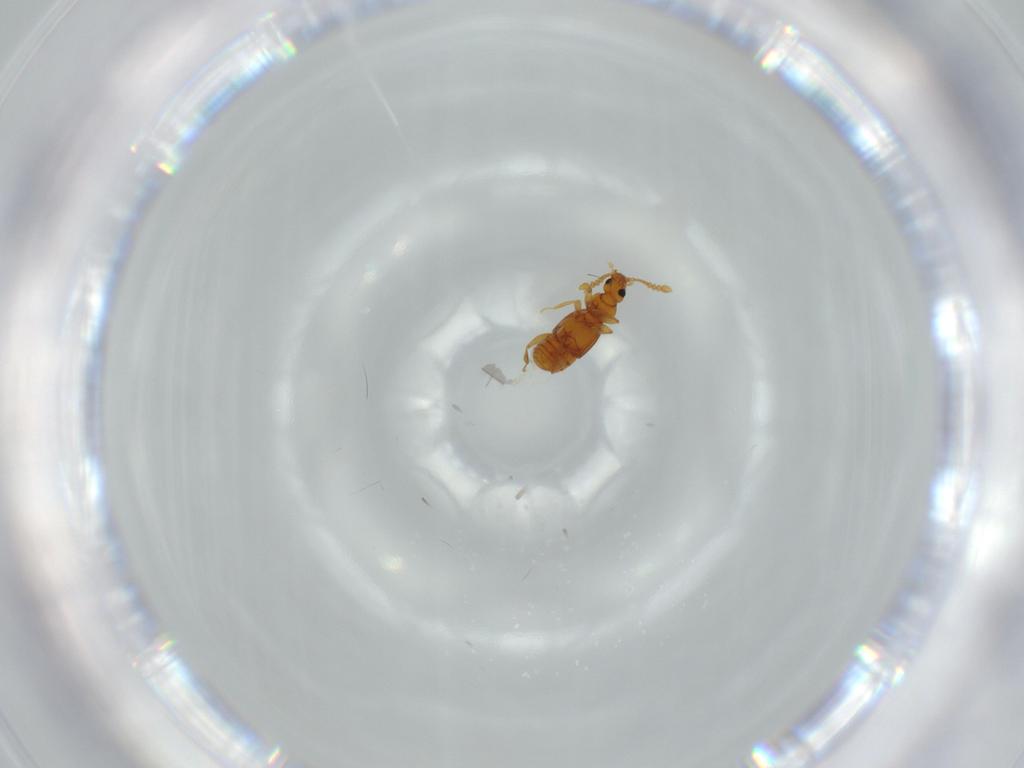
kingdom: Animalia
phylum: Arthropoda
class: Insecta
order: Coleoptera
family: Staphylinidae
